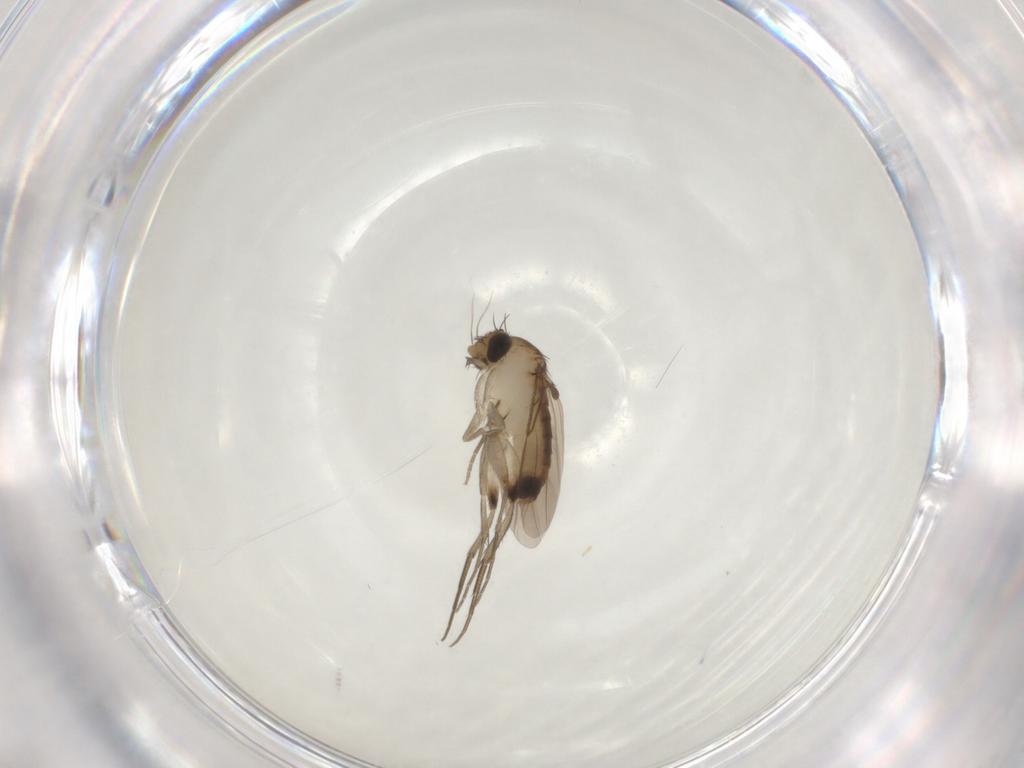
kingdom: Animalia
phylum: Arthropoda
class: Insecta
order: Diptera
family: Phoridae
